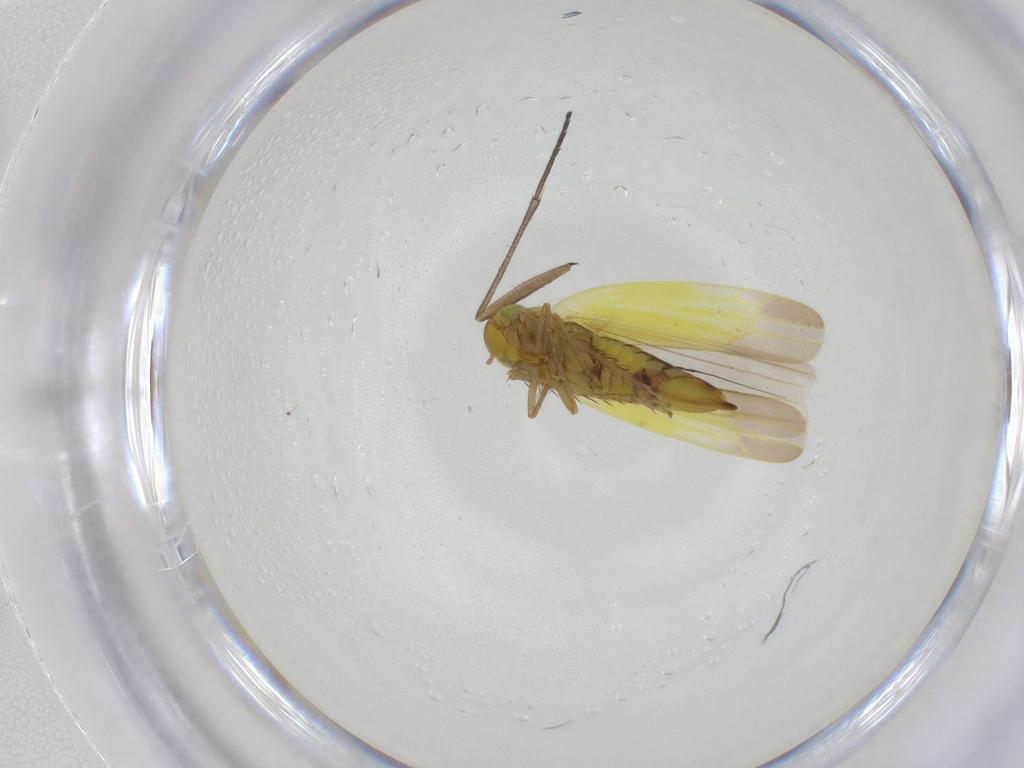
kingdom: Animalia
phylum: Arthropoda
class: Insecta
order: Hemiptera
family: Cicadellidae
